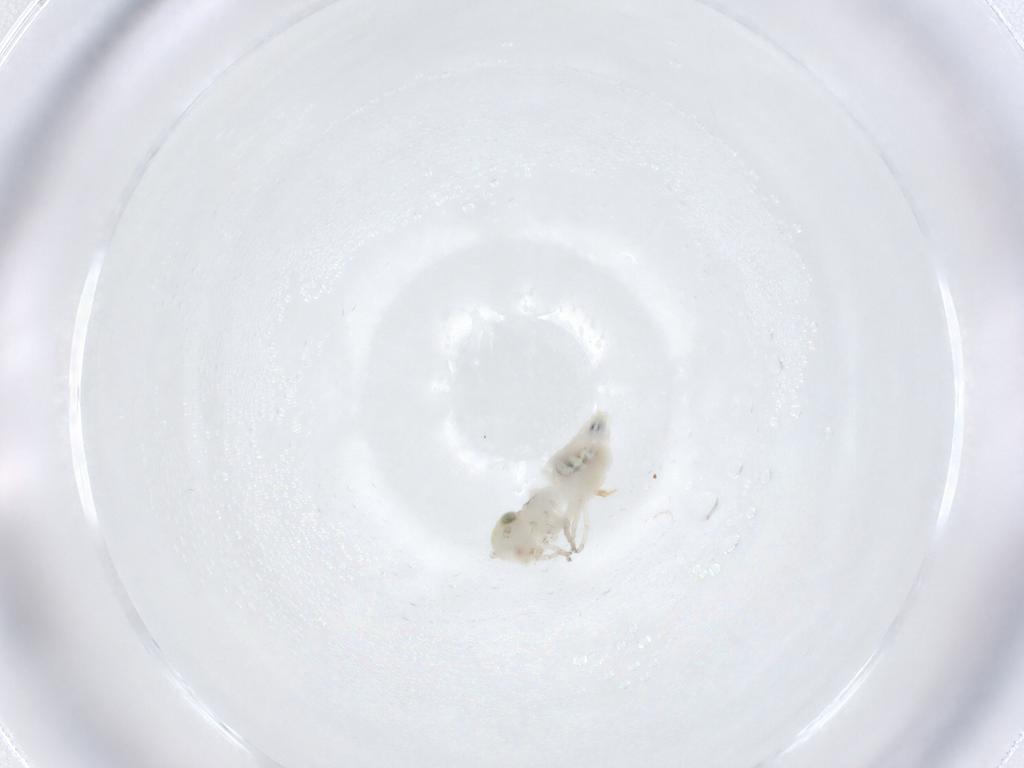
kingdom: Animalia
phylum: Arthropoda
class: Insecta
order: Psocodea
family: Caeciliusidae
